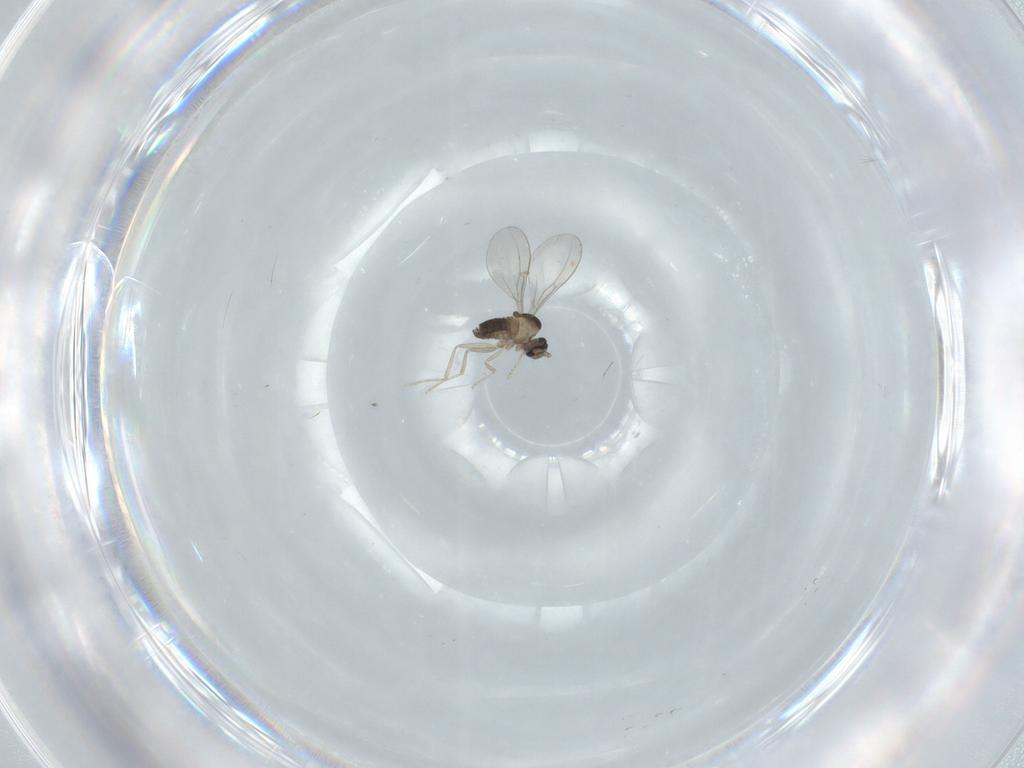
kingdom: Animalia
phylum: Arthropoda
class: Insecta
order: Diptera
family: Cecidomyiidae
